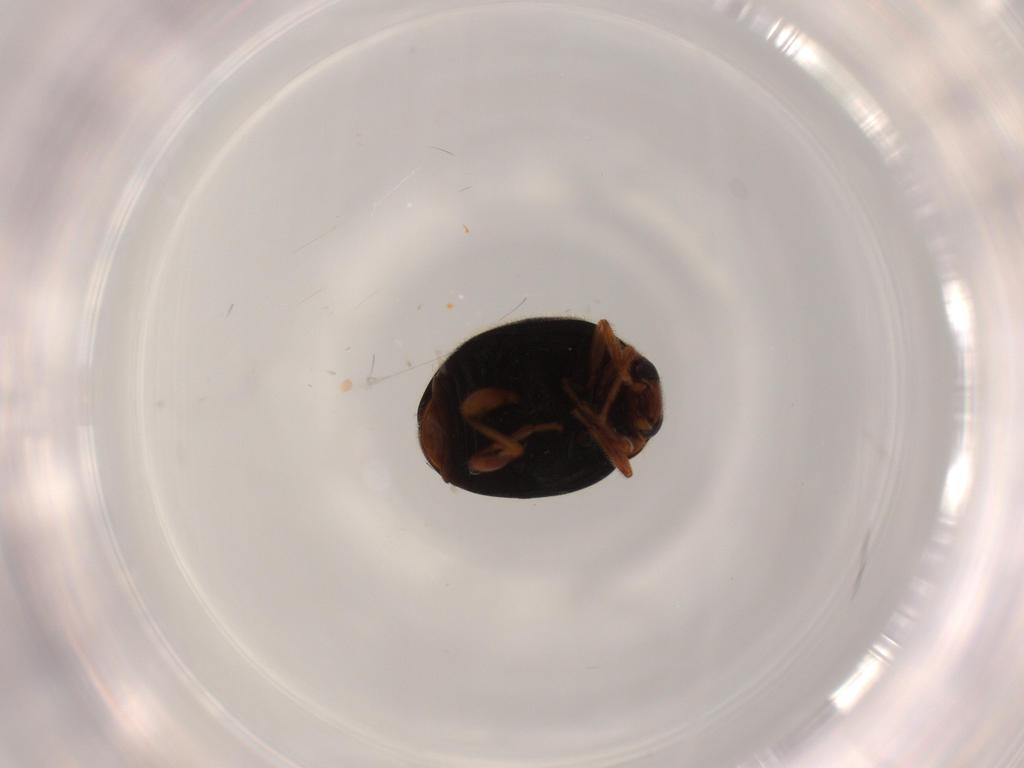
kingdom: Animalia
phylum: Arthropoda
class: Insecta
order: Coleoptera
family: Coccinellidae
